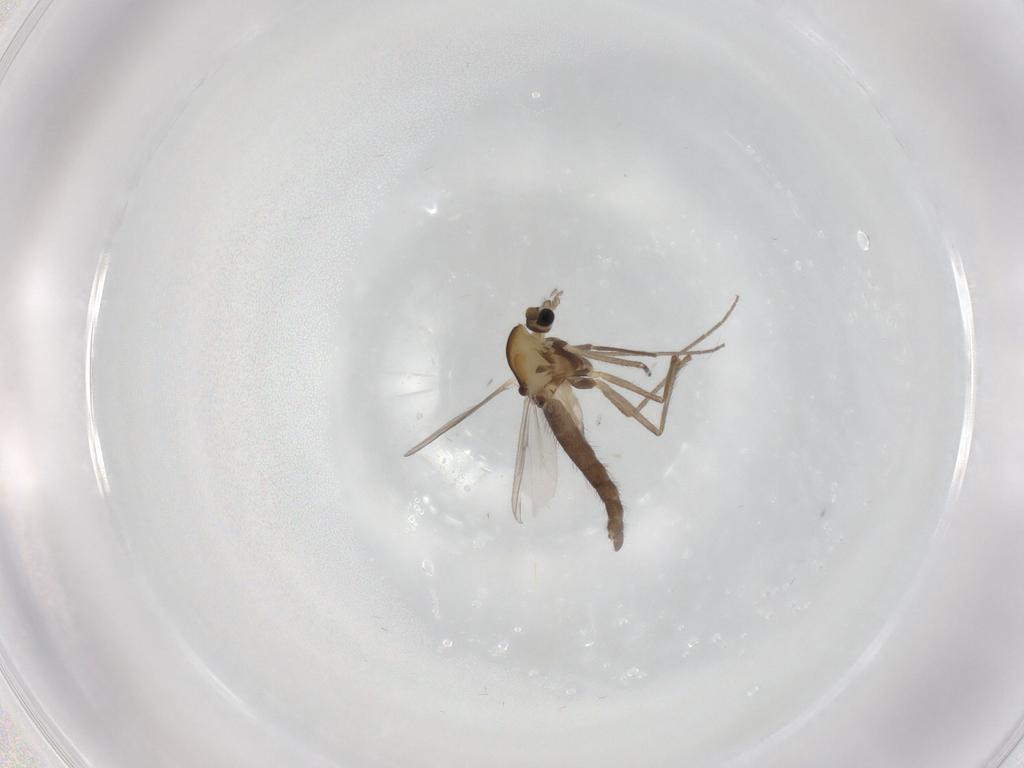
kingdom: Animalia
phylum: Arthropoda
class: Insecta
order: Diptera
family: Chironomidae
